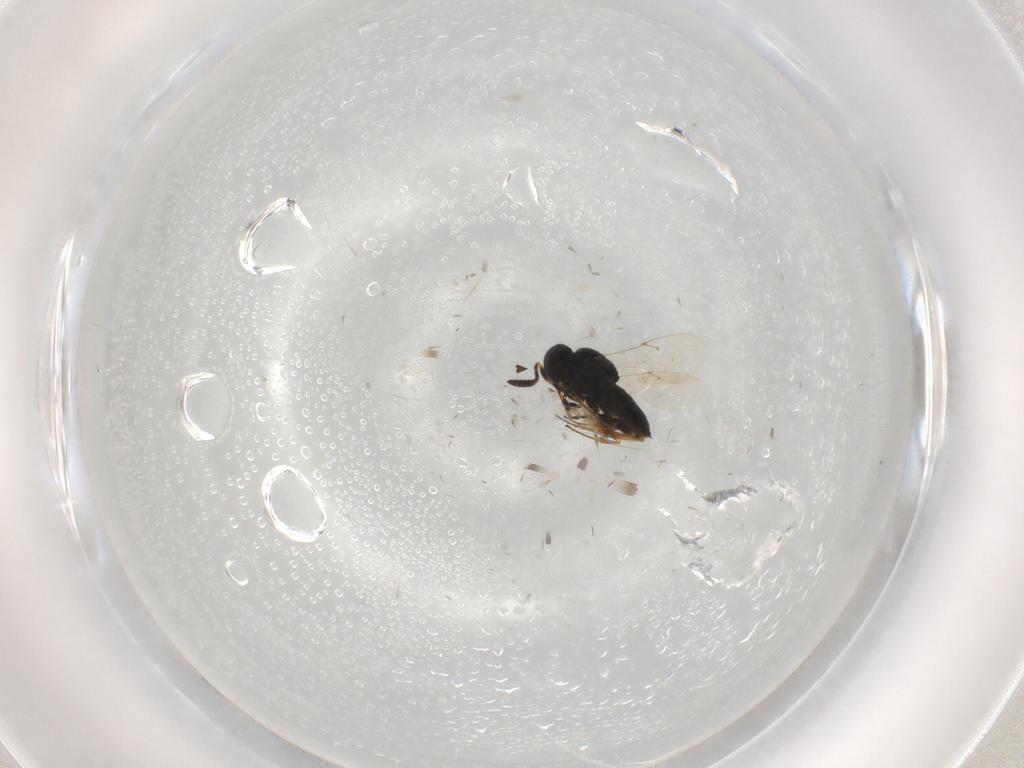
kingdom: Animalia
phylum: Arthropoda
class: Insecta
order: Hymenoptera
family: Scelionidae
